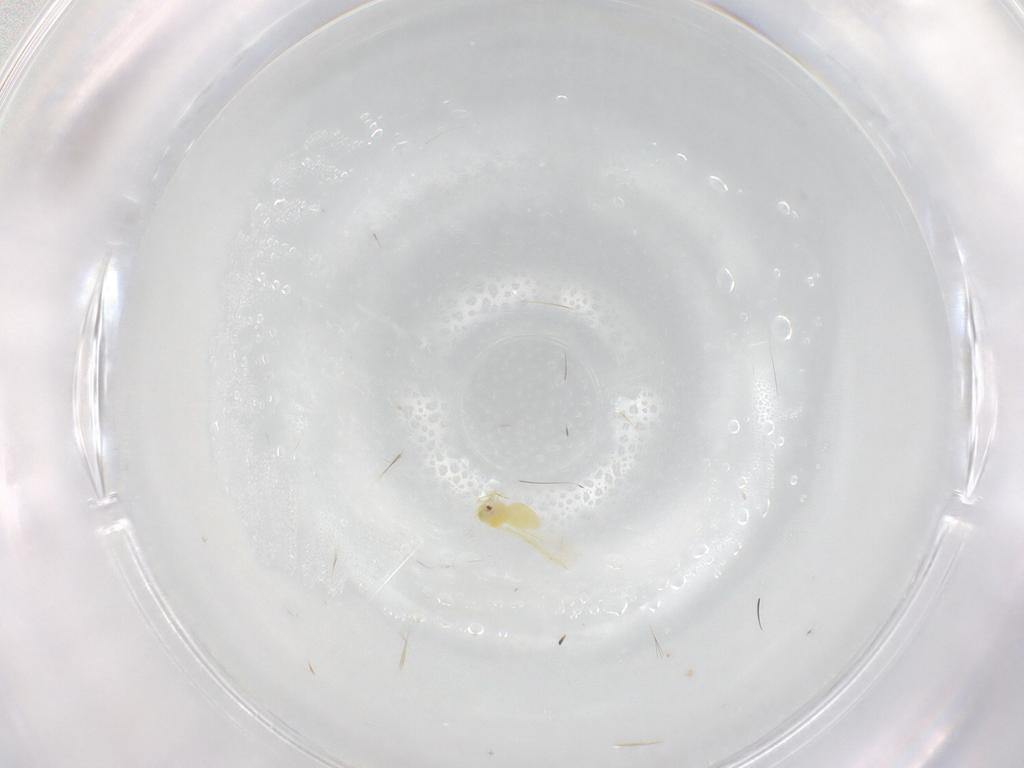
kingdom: Animalia
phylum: Arthropoda
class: Insecta
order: Hemiptera
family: Aleyrodidae
